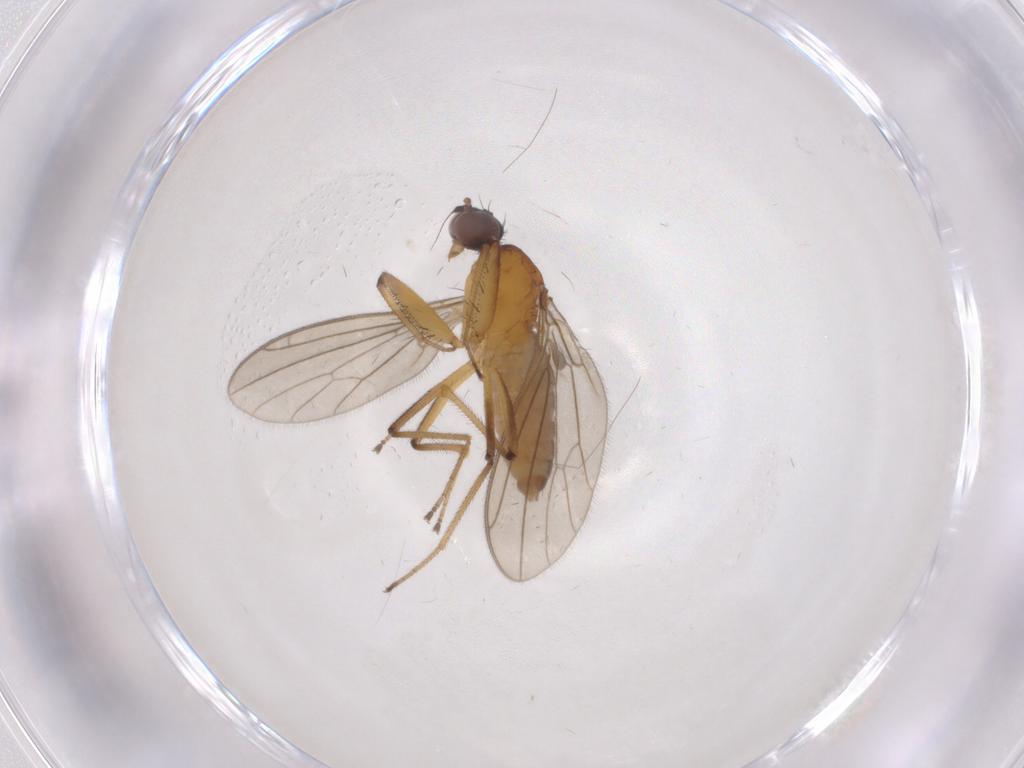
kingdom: Animalia
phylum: Arthropoda
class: Insecta
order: Diptera
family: Empididae
